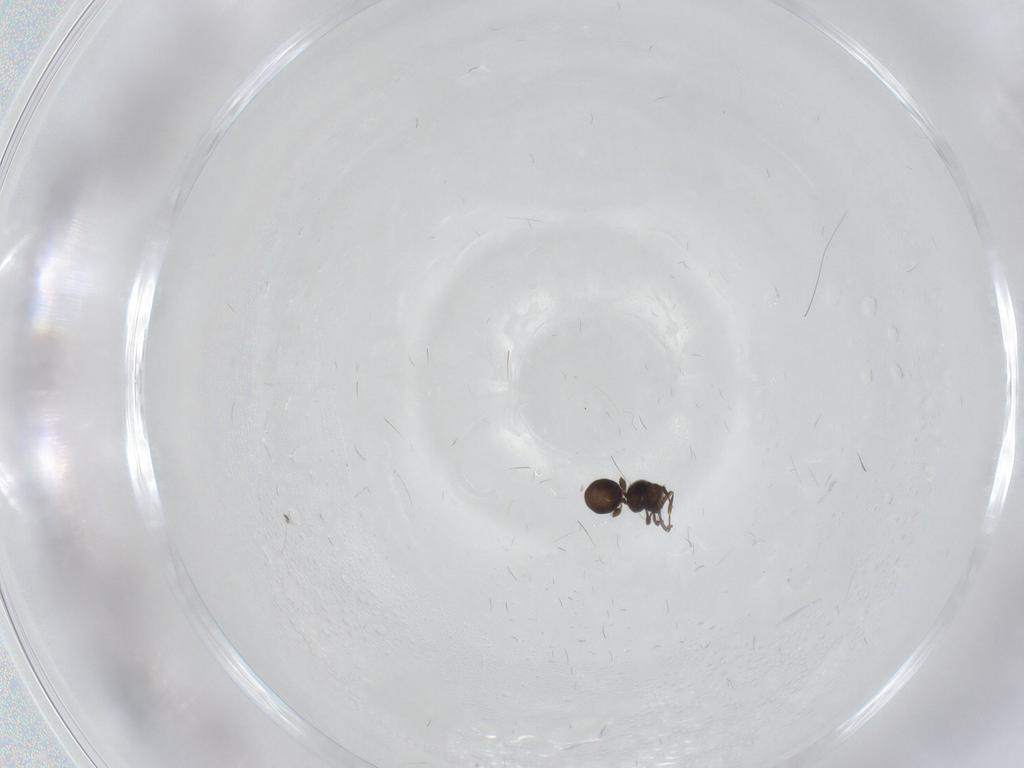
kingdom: Animalia
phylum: Arthropoda
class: Insecta
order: Hymenoptera
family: Scelionidae
